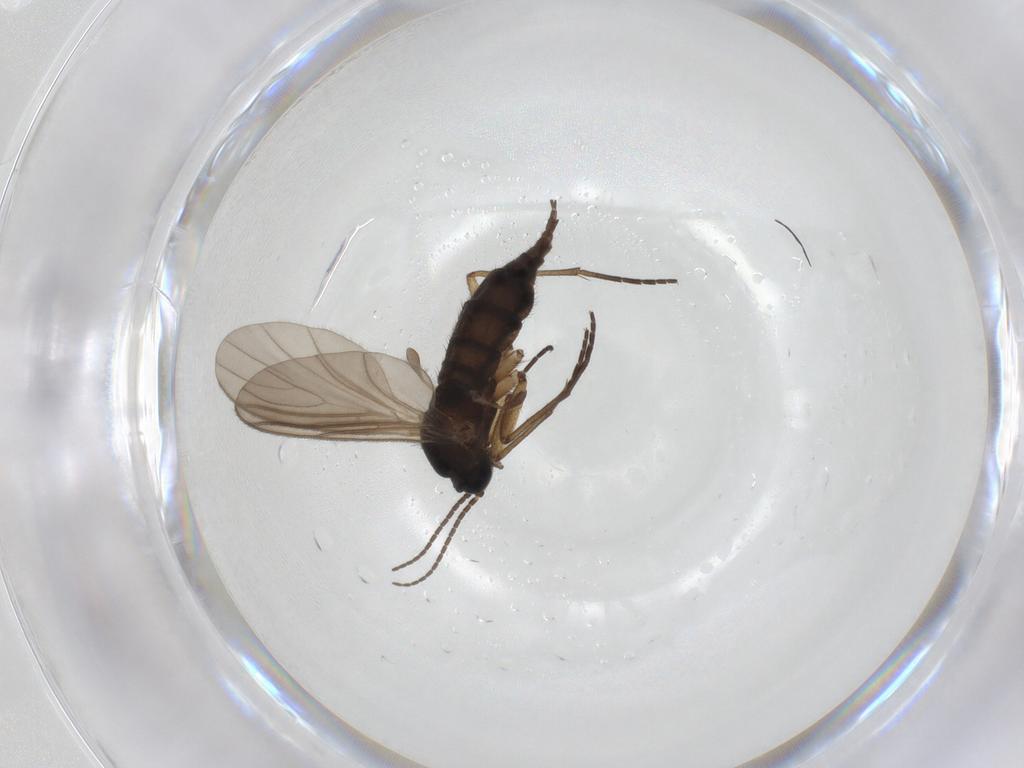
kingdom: Animalia
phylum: Arthropoda
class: Insecta
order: Diptera
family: Sciaridae
